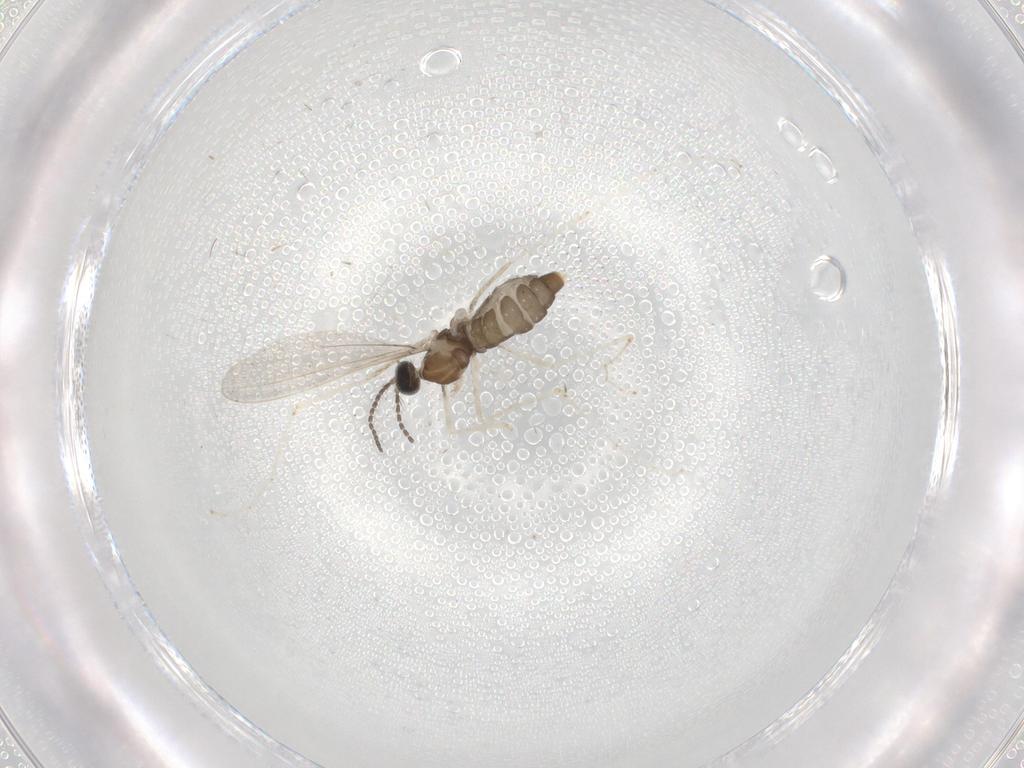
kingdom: Animalia
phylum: Arthropoda
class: Insecta
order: Diptera
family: Cecidomyiidae
